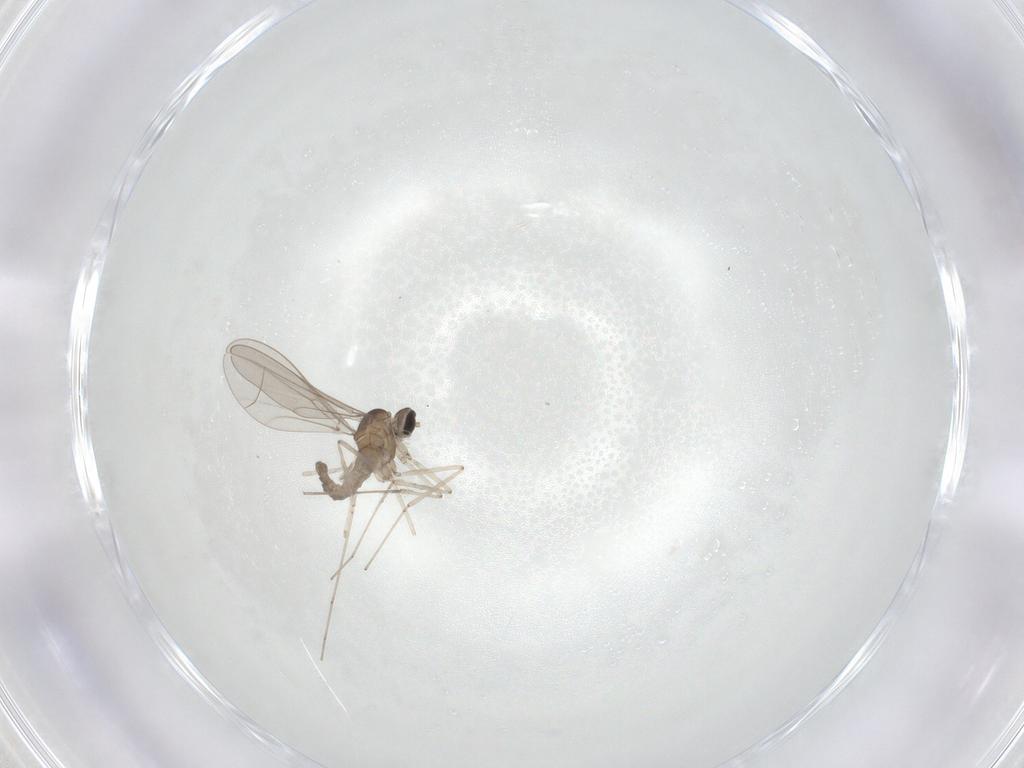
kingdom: Animalia
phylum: Arthropoda
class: Insecta
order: Diptera
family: Cecidomyiidae
